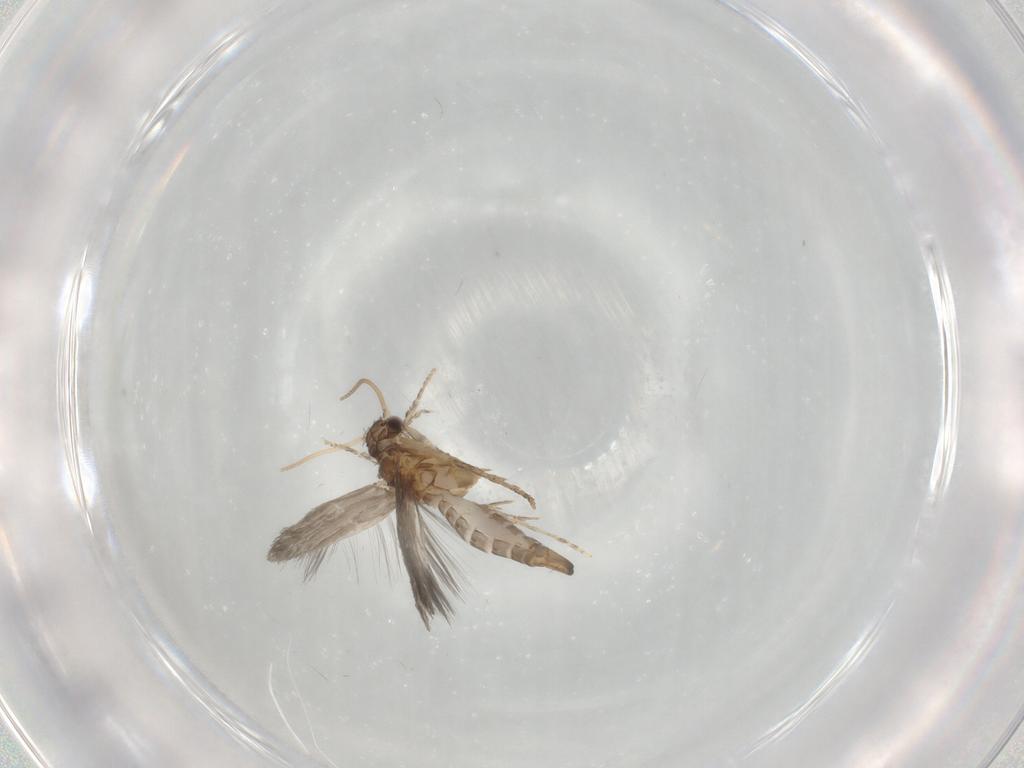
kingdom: Animalia
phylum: Arthropoda
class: Insecta
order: Trichoptera
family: Hydroptilidae
